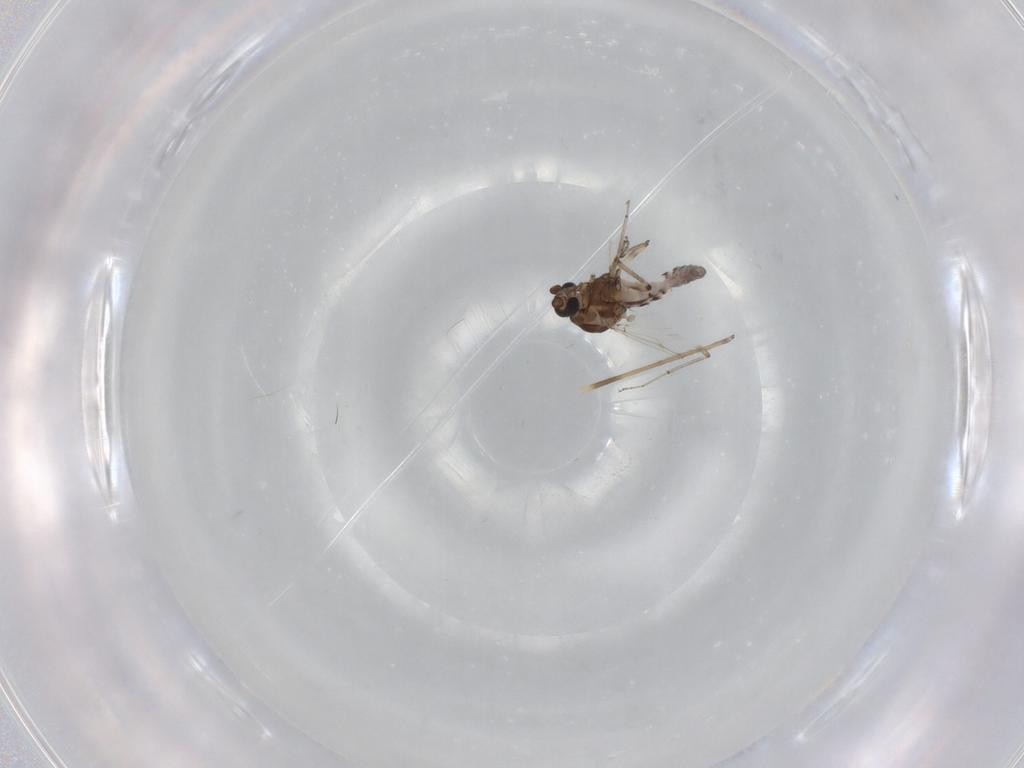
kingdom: Animalia
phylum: Arthropoda
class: Insecta
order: Diptera
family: Ceratopogonidae
